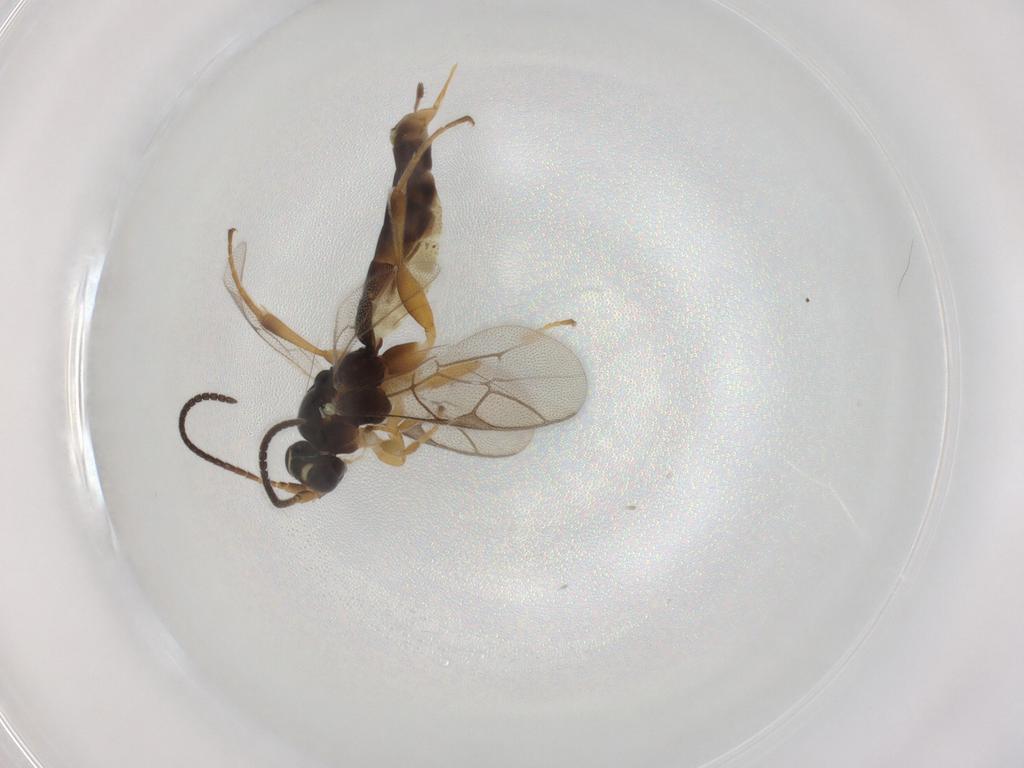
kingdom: Animalia
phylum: Arthropoda
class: Insecta
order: Hymenoptera
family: Ichneumonidae
